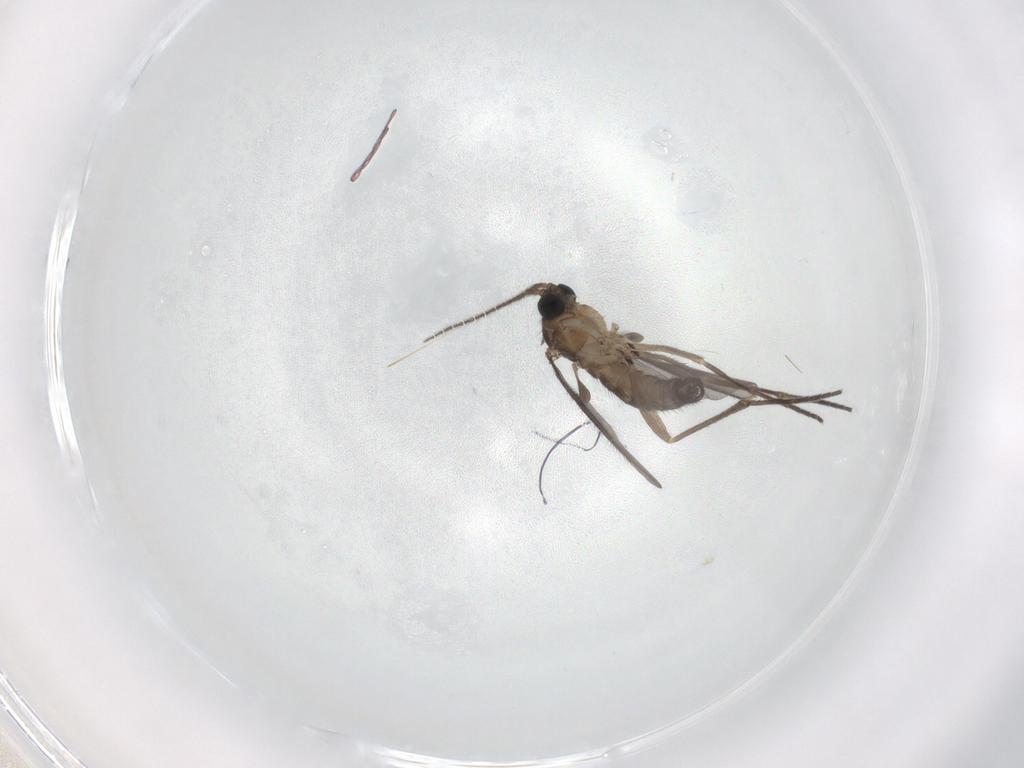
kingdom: Animalia
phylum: Arthropoda
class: Insecta
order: Diptera
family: Sciaridae
